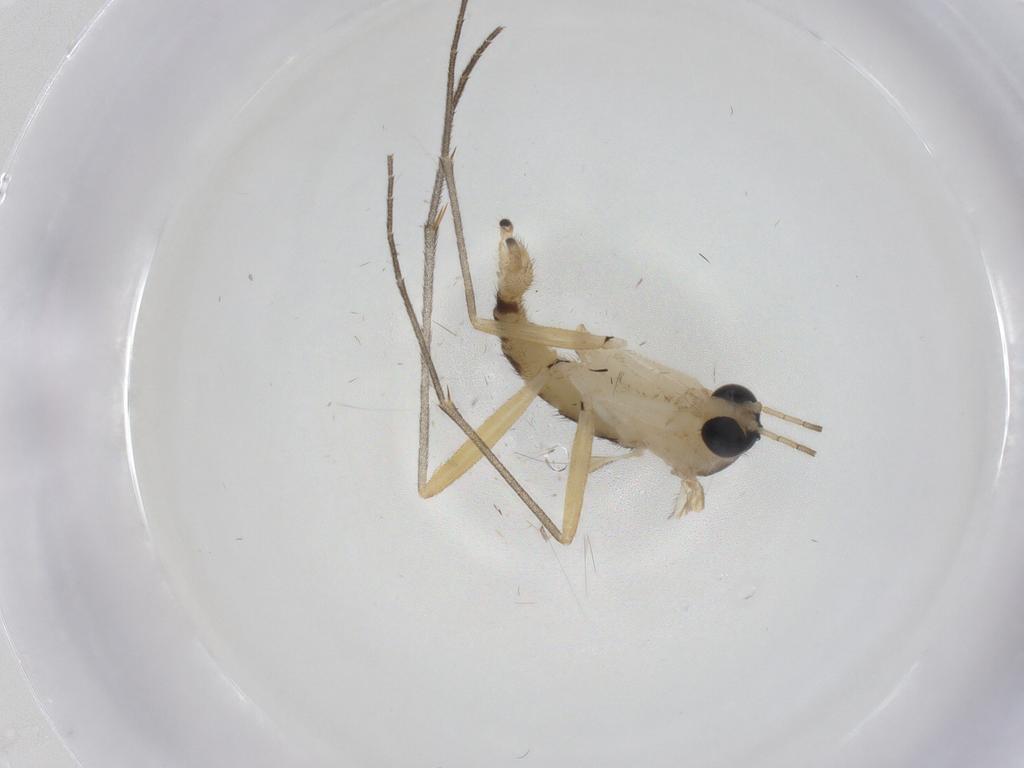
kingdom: Animalia
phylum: Arthropoda
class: Insecta
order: Diptera
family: Sciaridae
